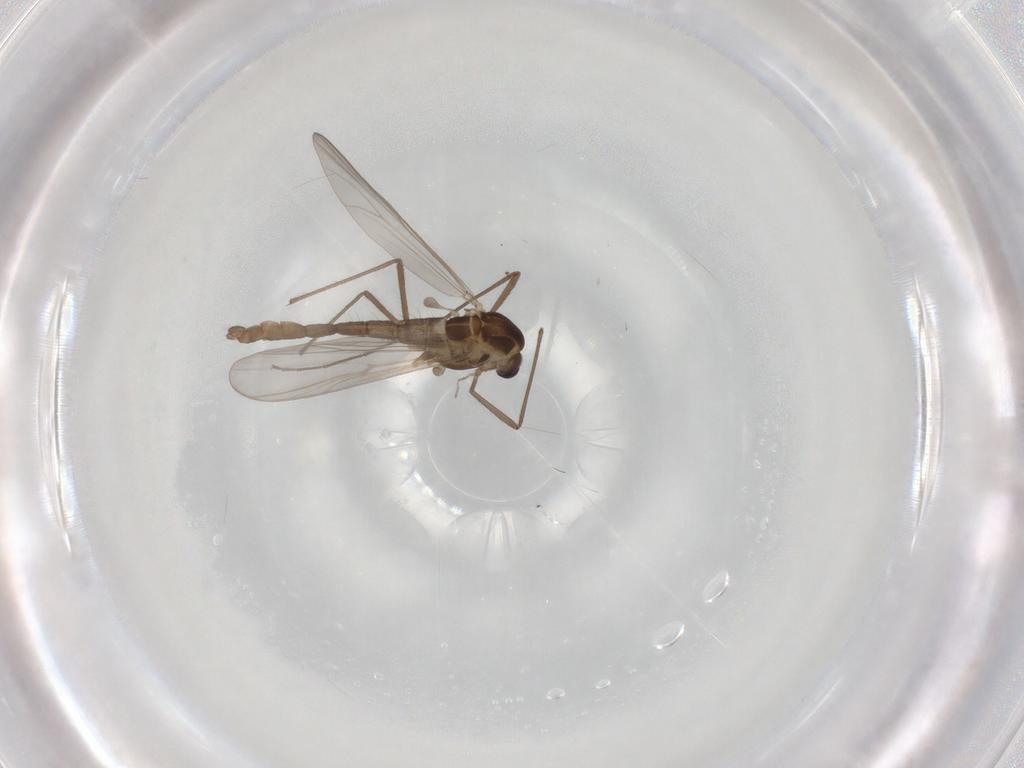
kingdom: Animalia
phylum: Arthropoda
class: Insecta
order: Diptera
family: Chironomidae
